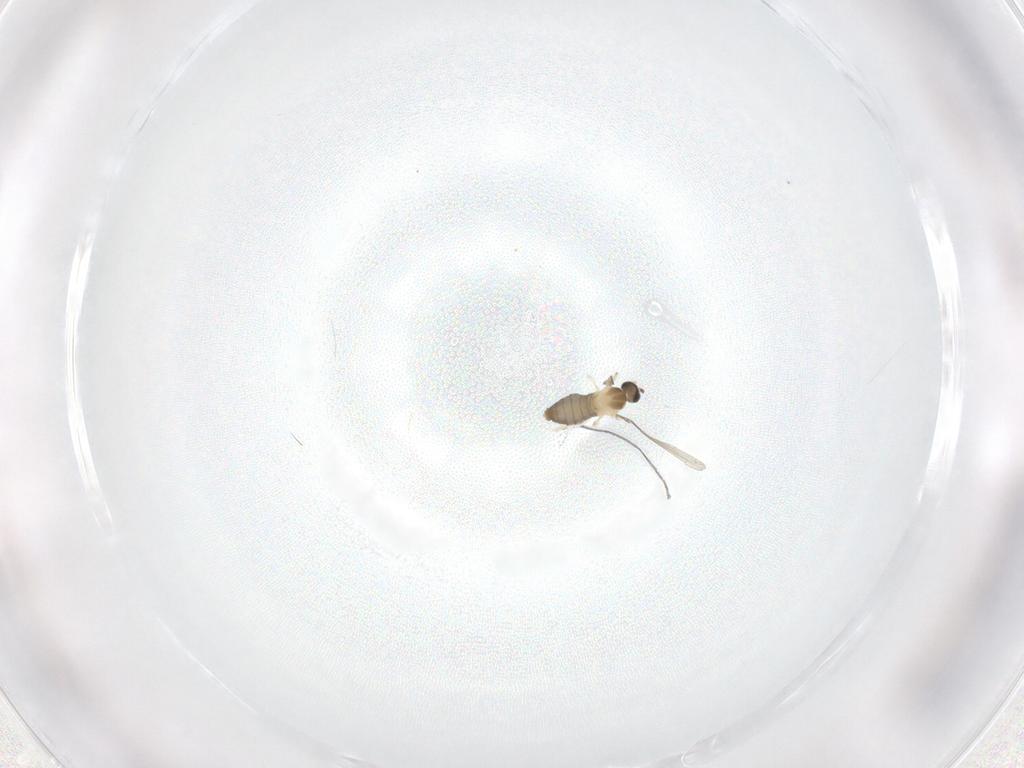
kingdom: Animalia
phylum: Arthropoda
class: Insecta
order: Diptera
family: Cecidomyiidae
